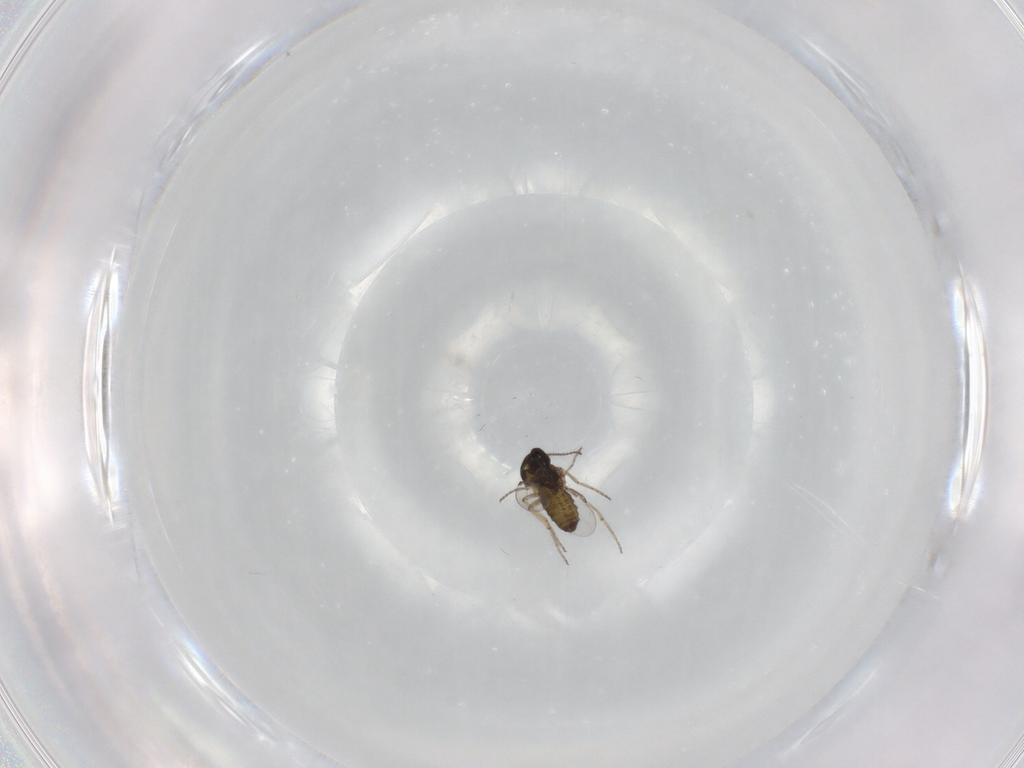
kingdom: Animalia
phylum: Arthropoda
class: Insecta
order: Diptera
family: Ceratopogonidae
